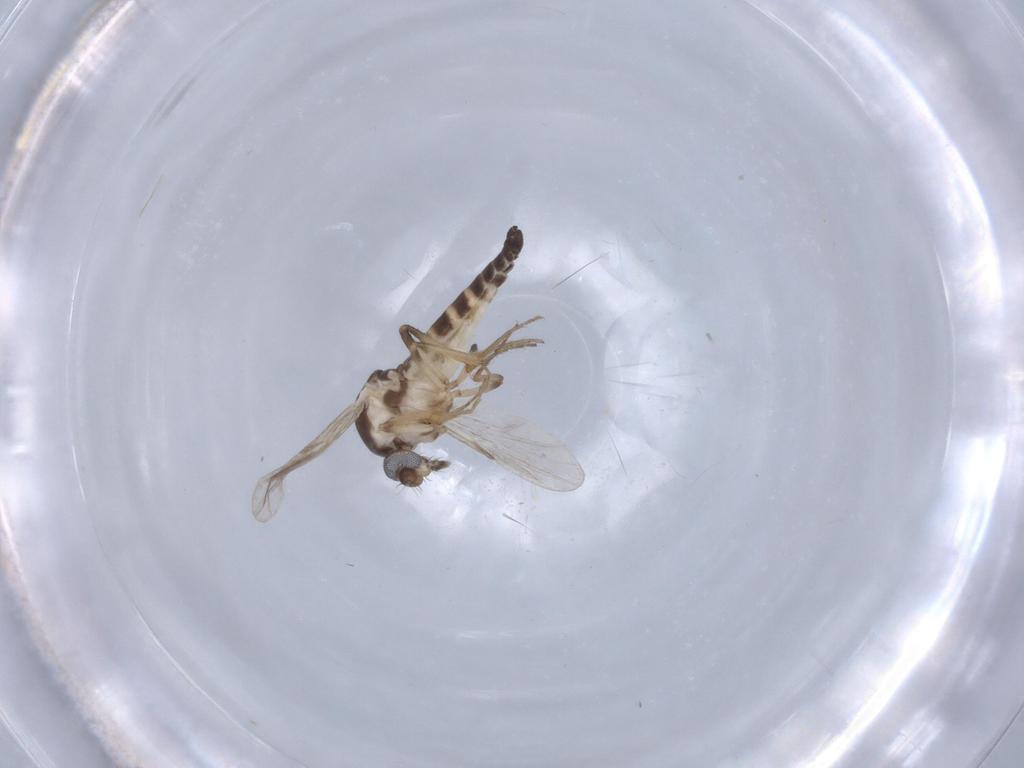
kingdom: Animalia
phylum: Arthropoda
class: Insecta
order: Diptera
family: Ceratopogonidae
